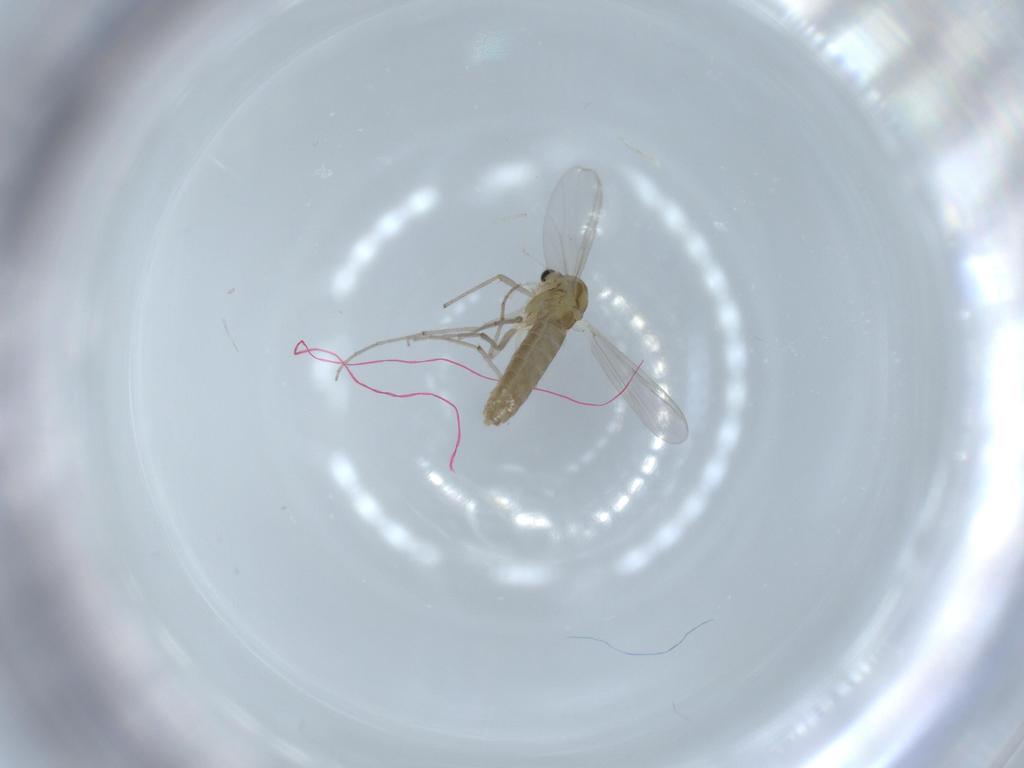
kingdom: Animalia
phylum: Arthropoda
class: Insecta
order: Diptera
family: Chironomidae
